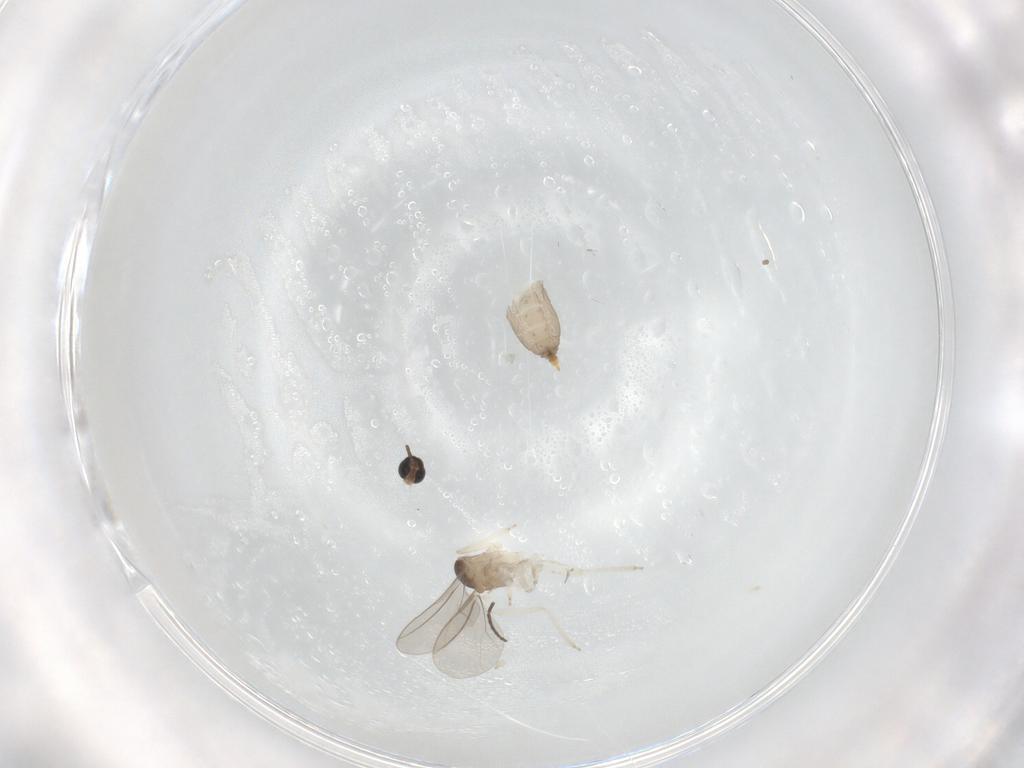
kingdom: Animalia
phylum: Arthropoda
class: Insecta
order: Diptera
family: Cecidomyiidae
